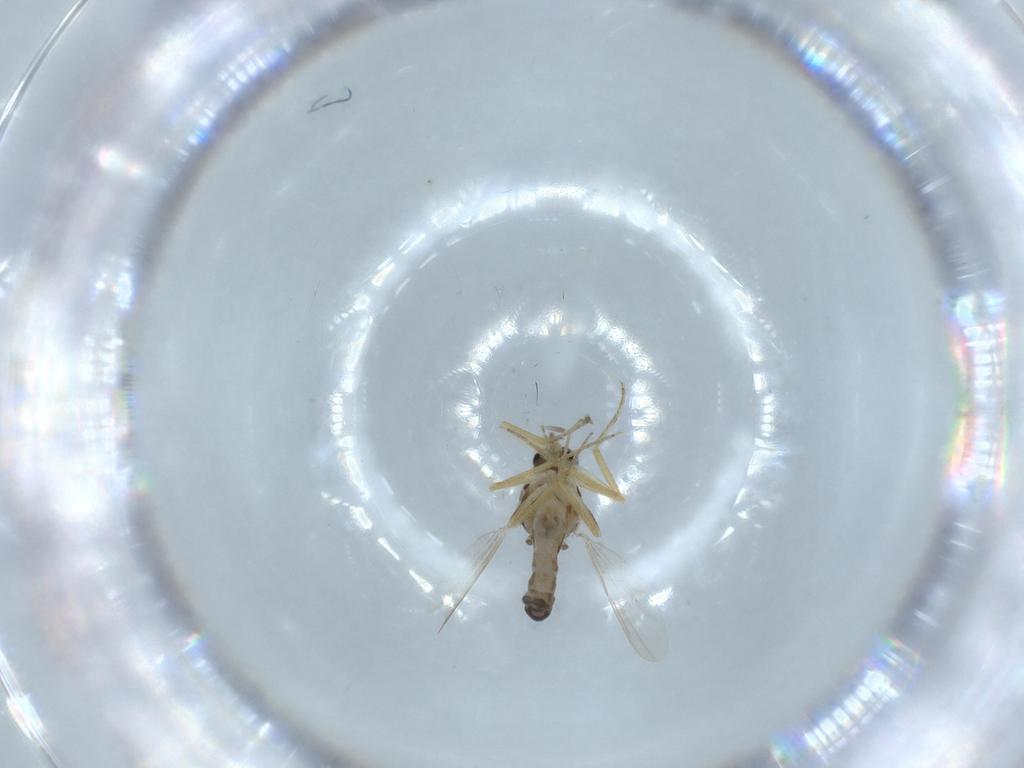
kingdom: Animalia
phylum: Arthropoda
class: Insecta
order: Diptera
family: Ceratopogonidae
